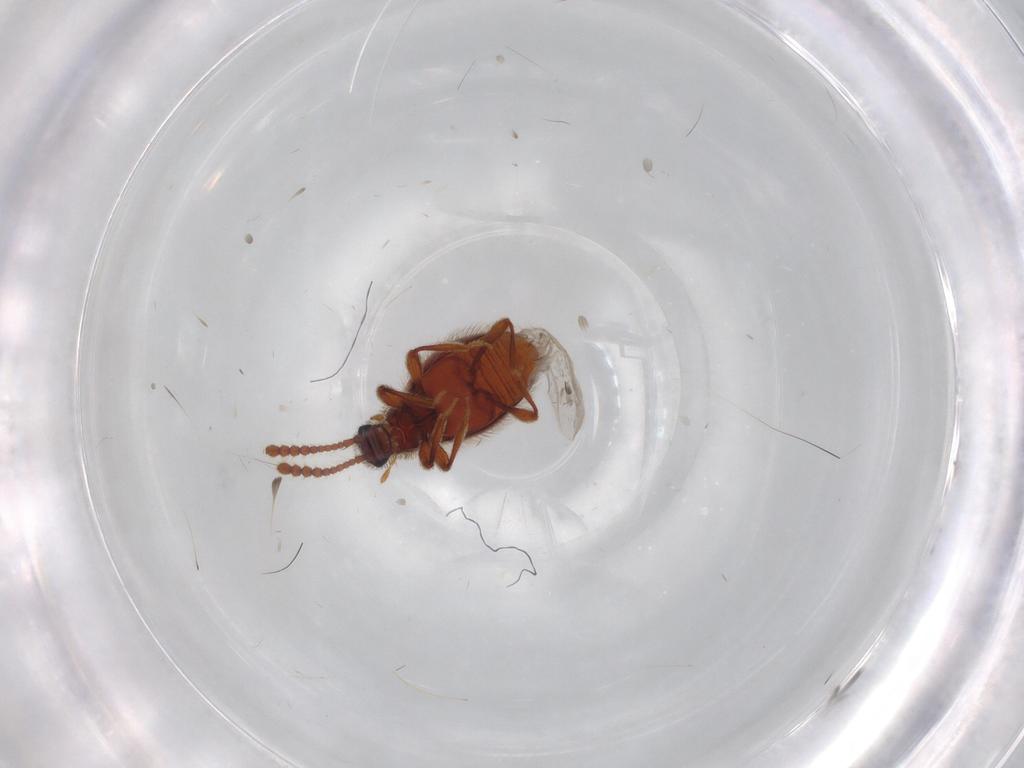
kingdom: Animalia
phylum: Arthropoda
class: Insecta
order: Coleoptera
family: Staphylinidae
